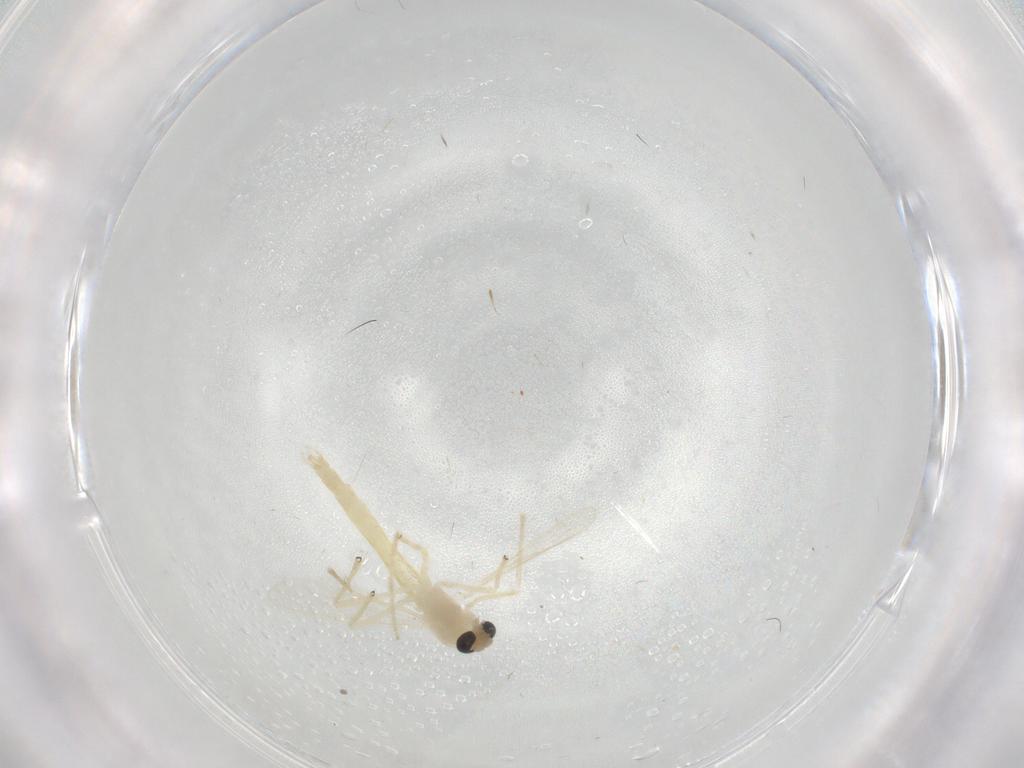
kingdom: Animalia
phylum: Arthropoda
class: Insecta
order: Diptera
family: Chironomidae
